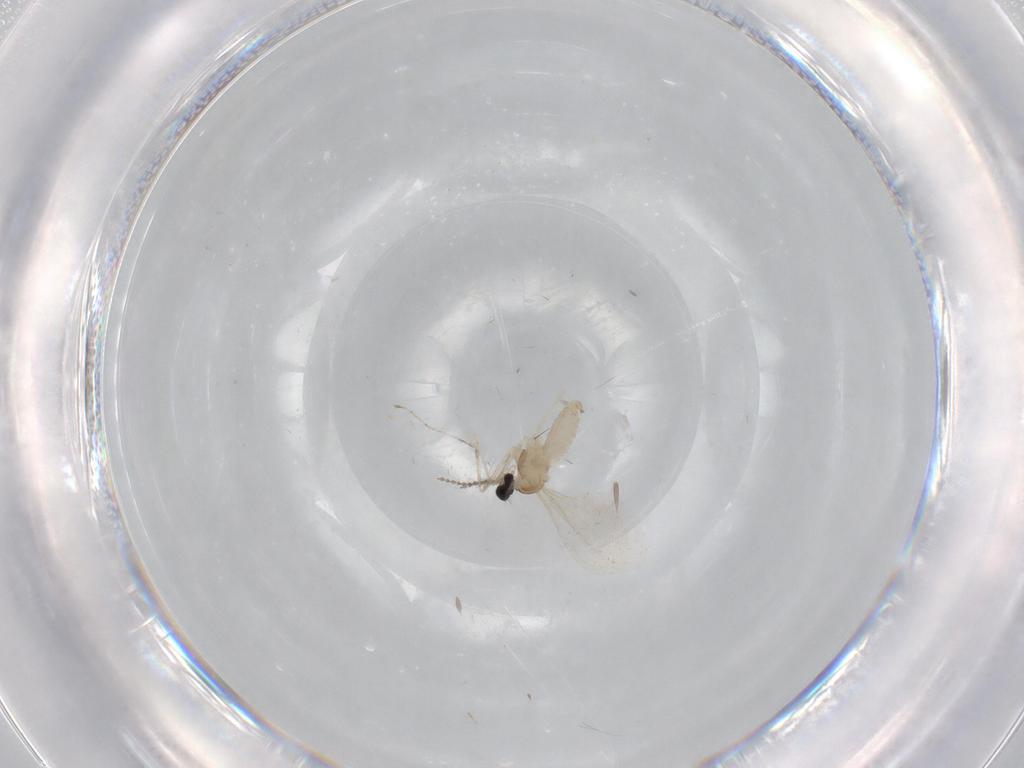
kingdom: Animalia
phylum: Arthropoda
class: Insecta
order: Diptera
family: Cecidomyiidae
